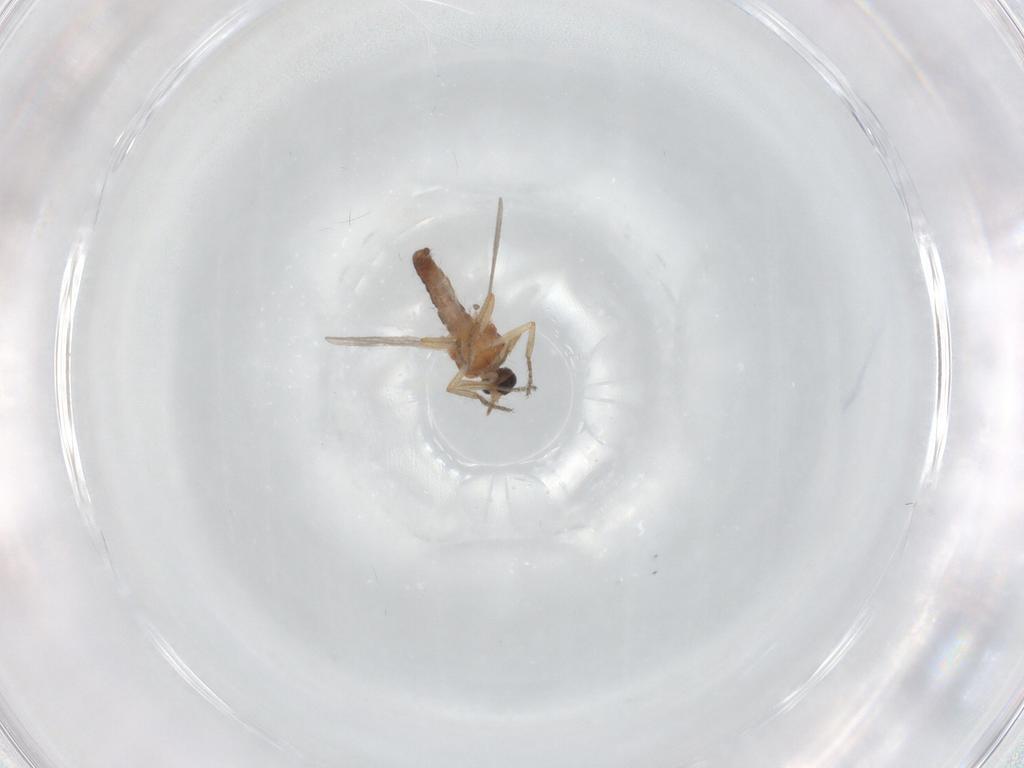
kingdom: Animalia
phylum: Arthropoda
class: Insecta
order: Diptera
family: Ceratopogonidae
